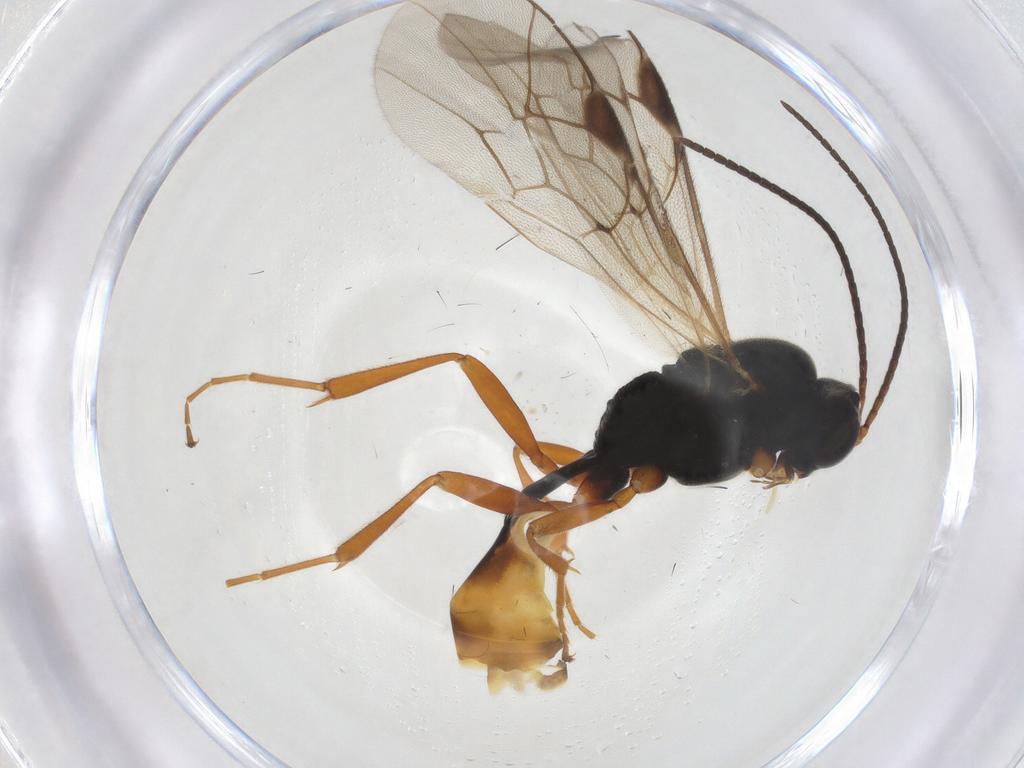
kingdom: Animalia
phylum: Arthropoda
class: Insecta
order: Hymenoptera
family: Ichneumonidae
